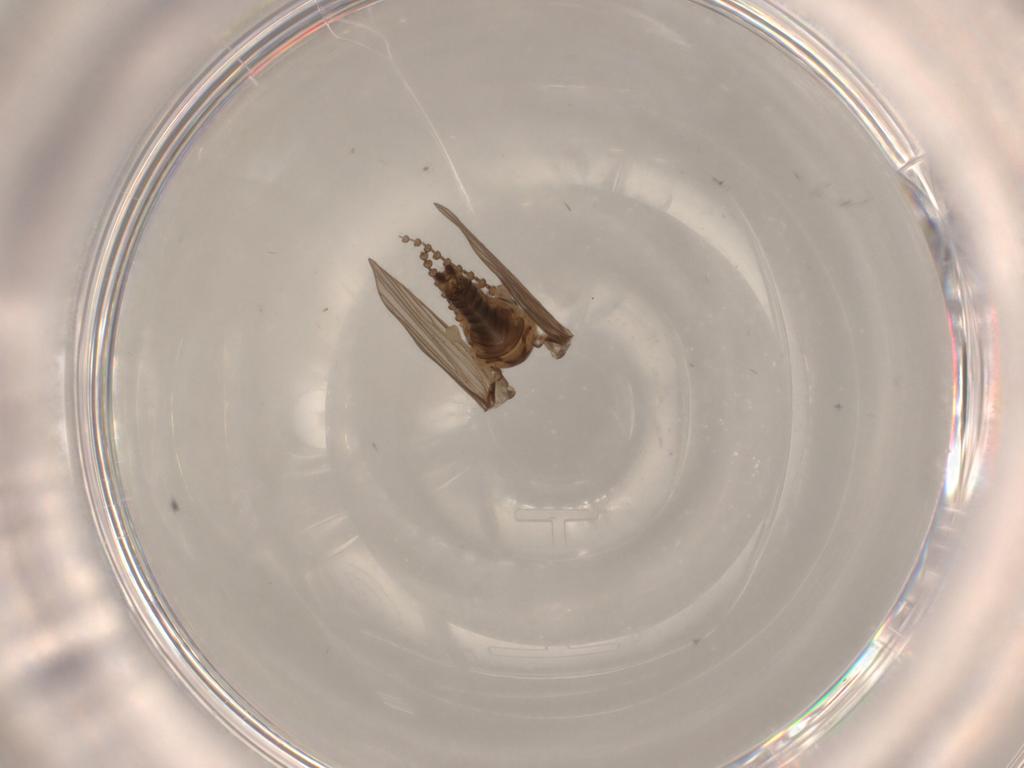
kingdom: Animalia
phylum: Arthropoda
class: Insecta
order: Diptera
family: Psychodidae
